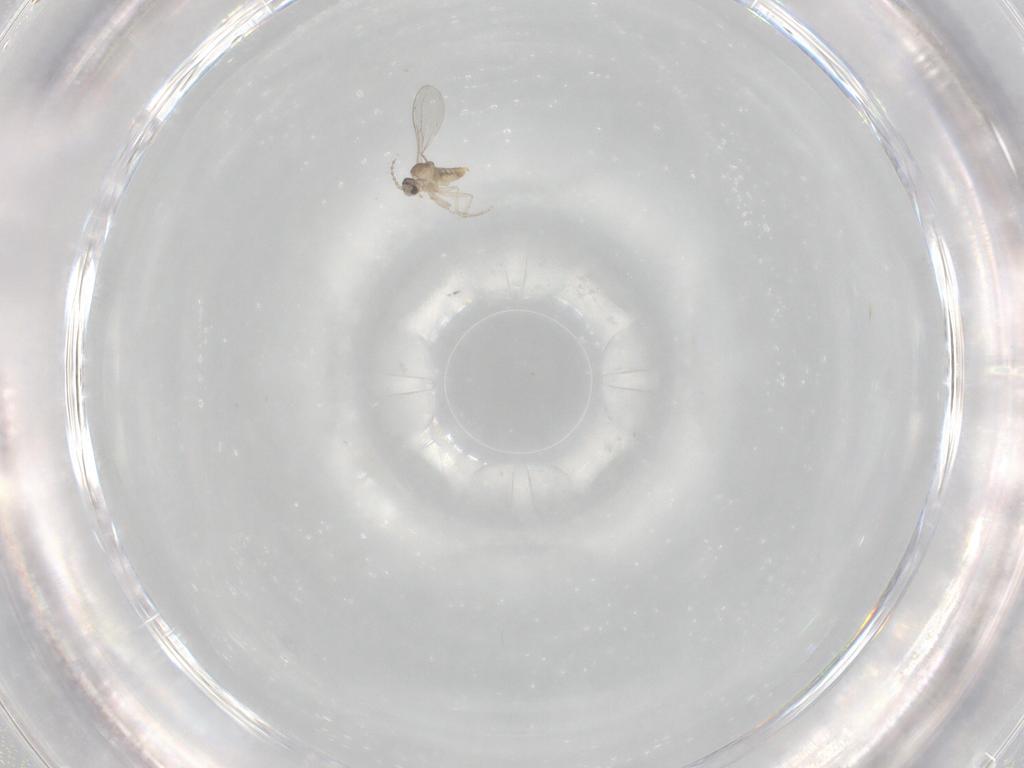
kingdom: Animalia
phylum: Arthropoda
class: Insecta
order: Diptera
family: Cecidomyiidae
